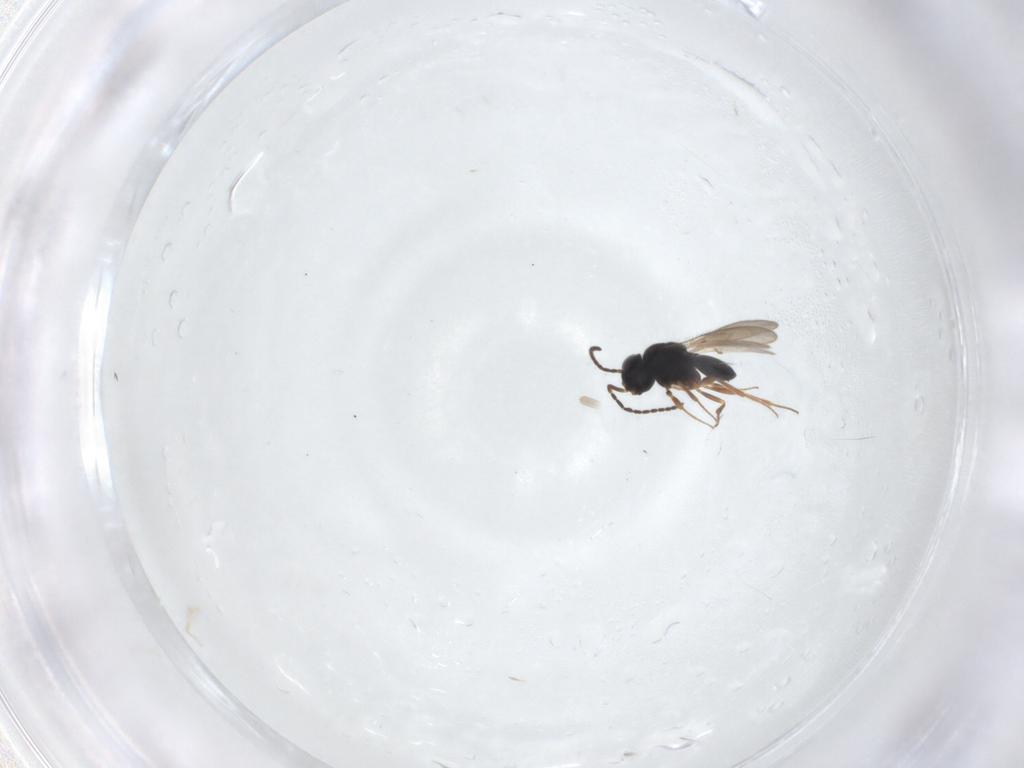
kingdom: Animalia
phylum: Arthropoda
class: Insecta
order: Hymenoptera
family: Scelionidae
